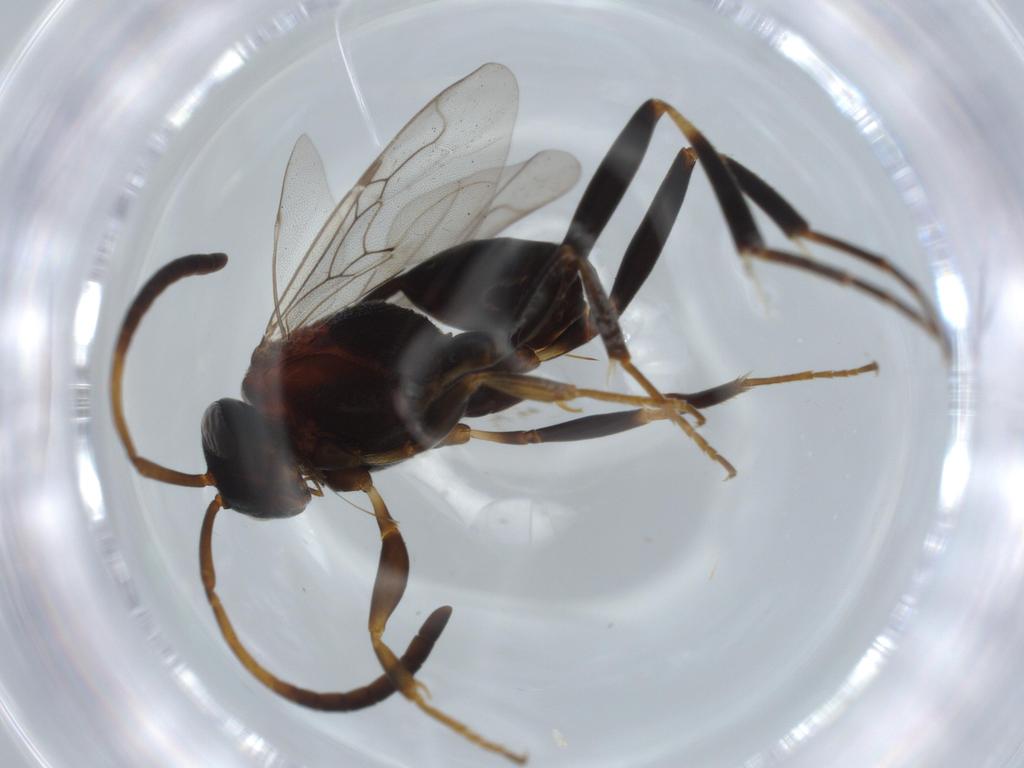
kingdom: Animalia
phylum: Arthropoda
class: Insecta
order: Hymenoptera
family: Evaniidae
